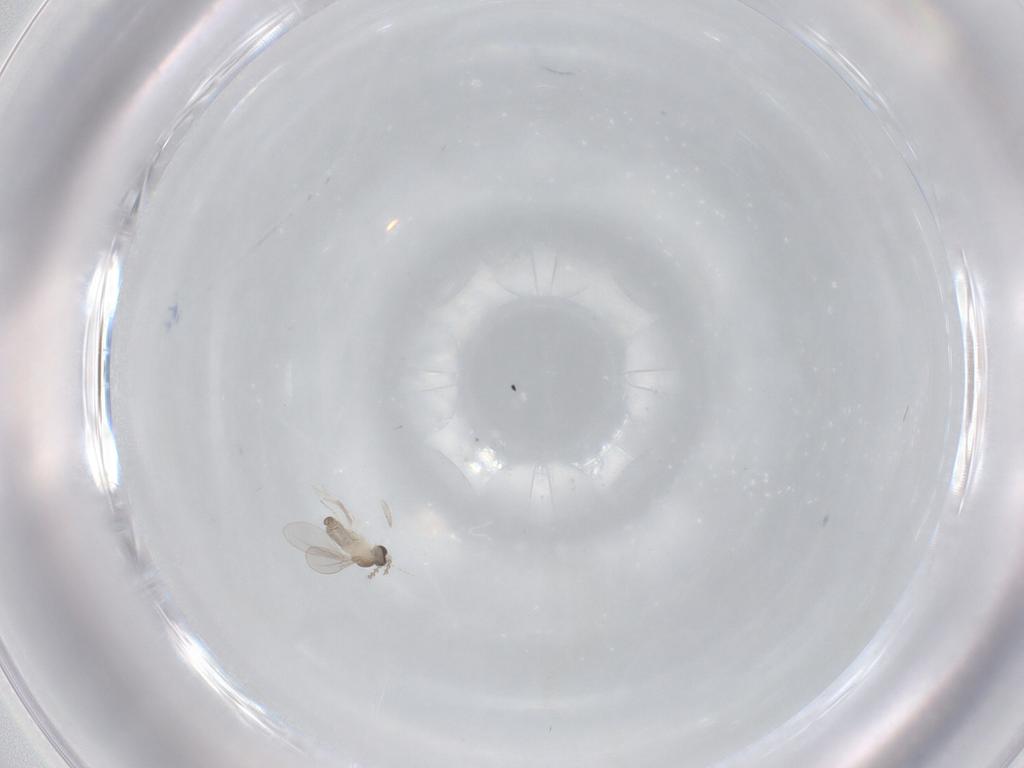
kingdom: Animalia
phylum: Arthropoda
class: Insecta
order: Diptera
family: Cecidomyiidae
